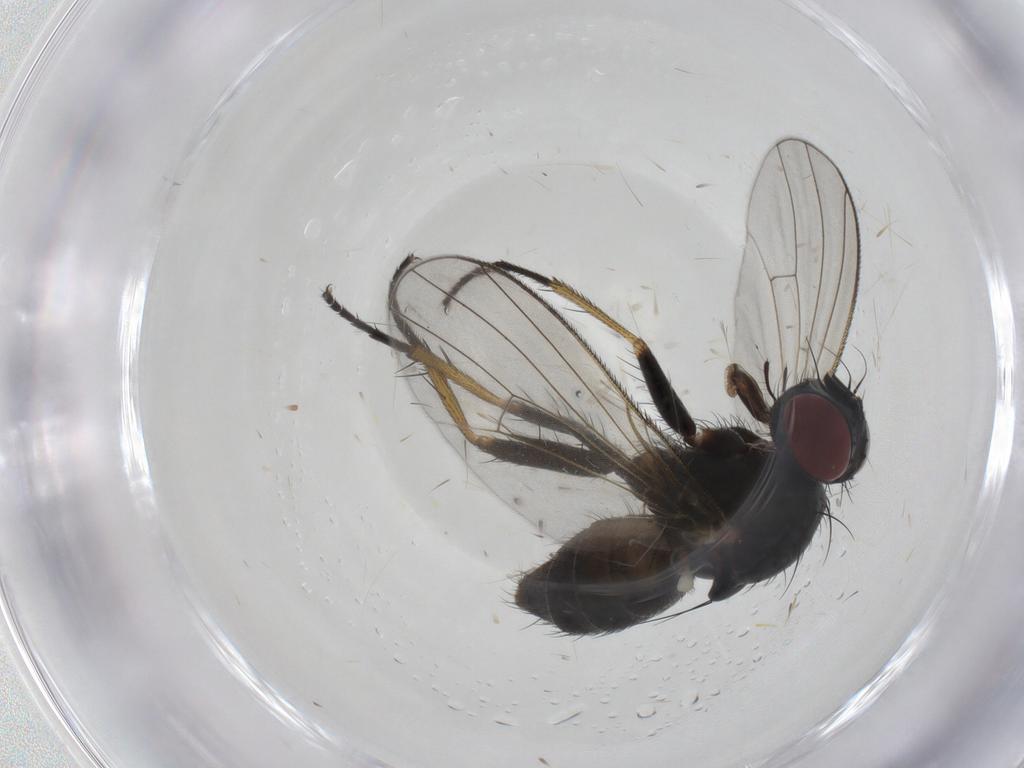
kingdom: Animalia
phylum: Arthropoda
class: Insecta
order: Diptera
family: Muscidae
